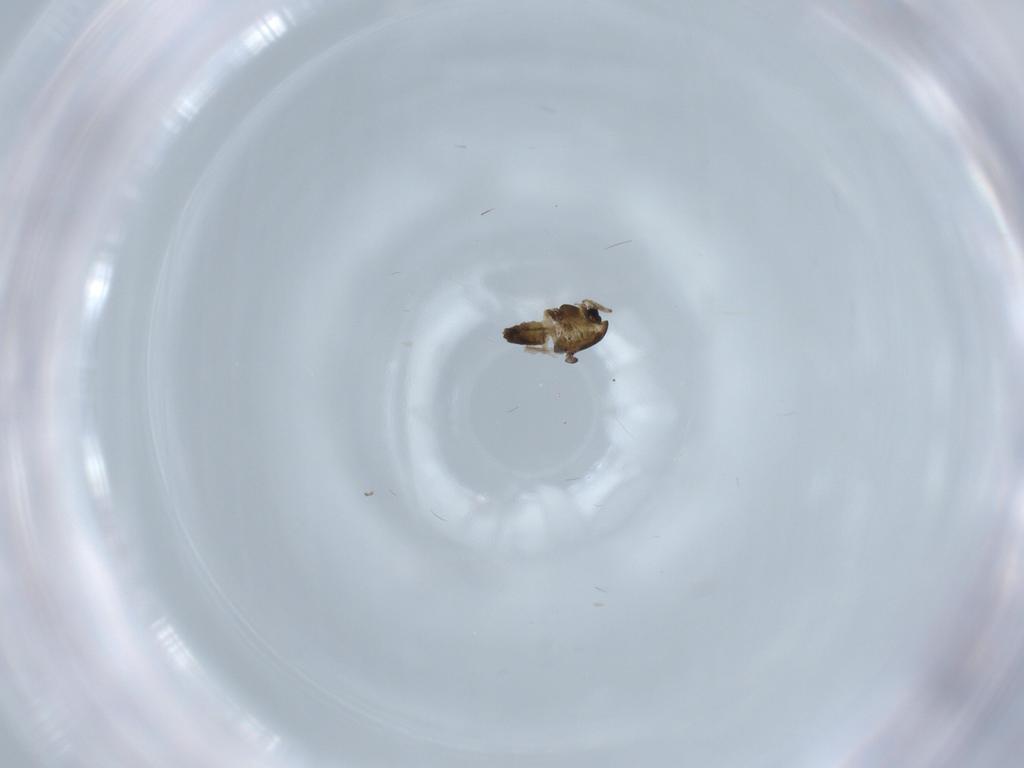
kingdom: Animalia
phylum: Arthropoda
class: Insecta
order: Diptera
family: Chironomidae
